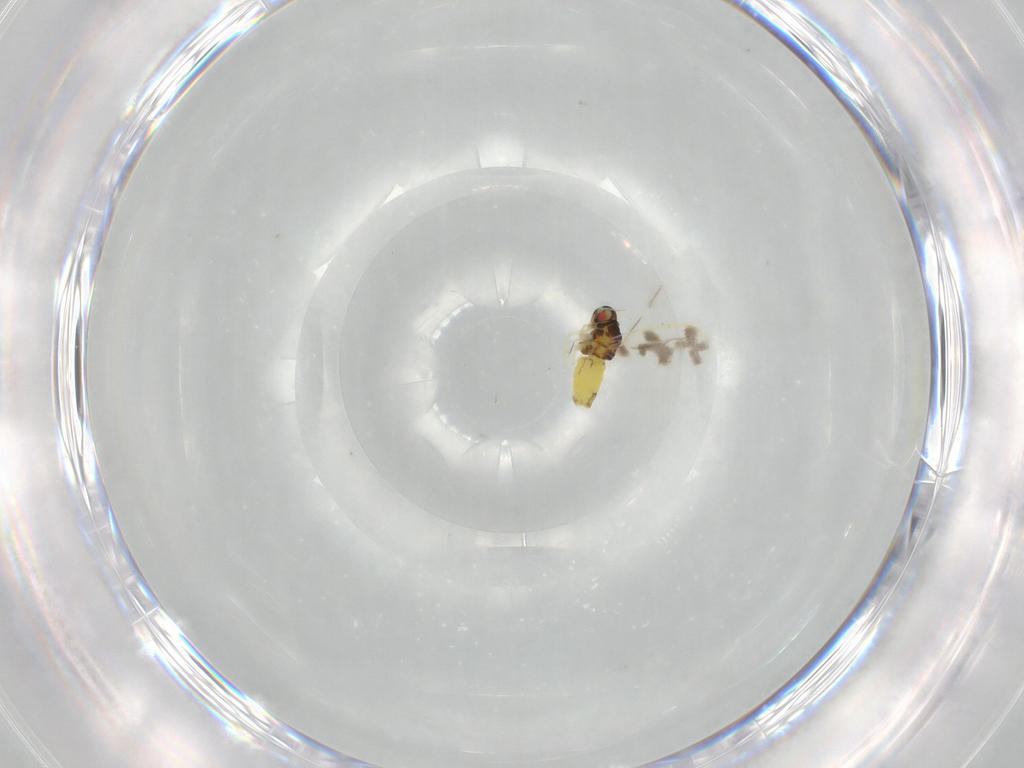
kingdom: Animalia
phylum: Arthropoda
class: Insecta
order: Hemiptera
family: Aleyrodidae
